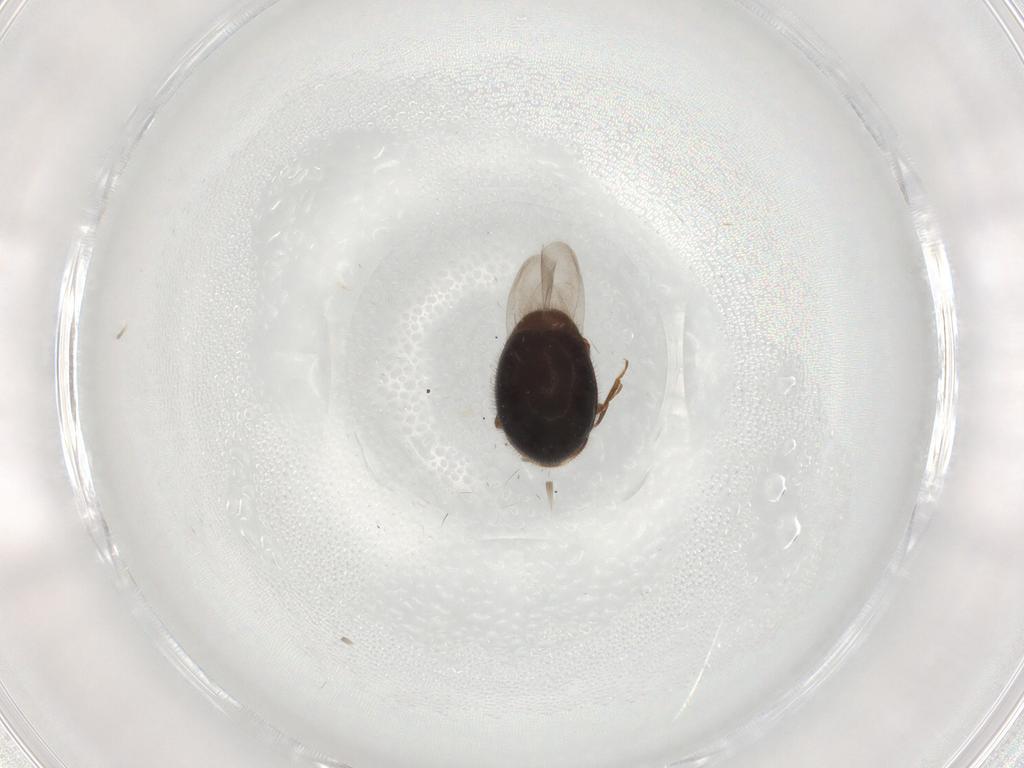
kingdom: Animalia
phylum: Arthropoda
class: Insecta
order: Coleoptera
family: Corylophidae
